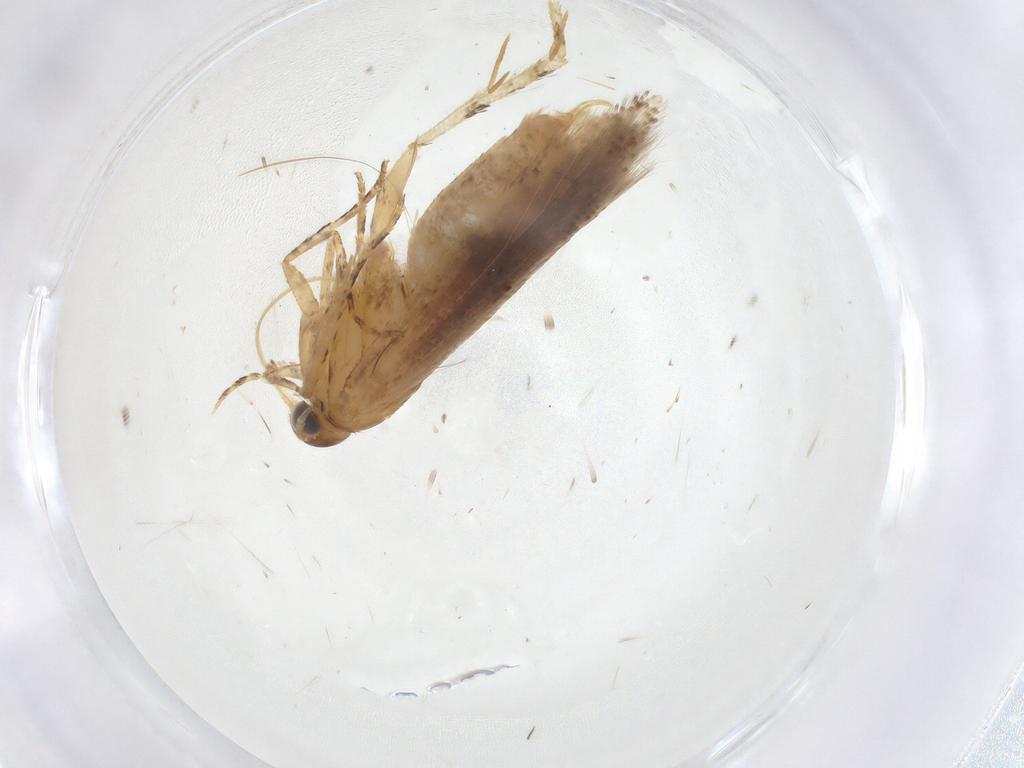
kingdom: Animalia
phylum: Arthropoda
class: Insecta
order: Lepidoptera
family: Gelechiidae
